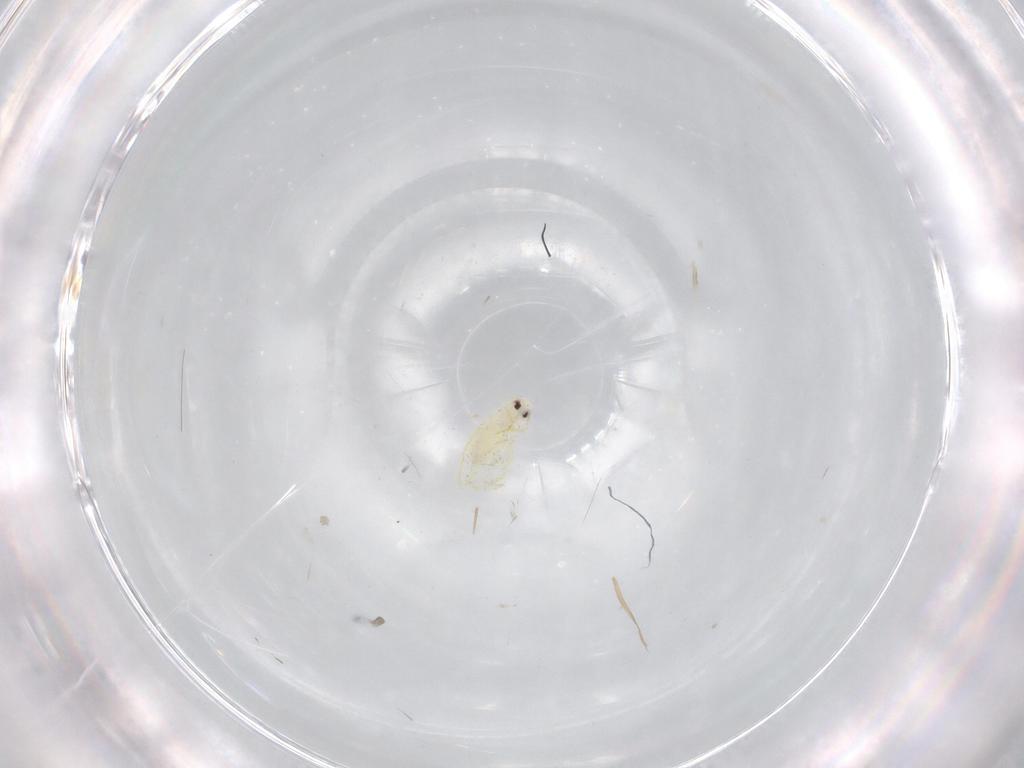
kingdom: Animalia
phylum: Arthropoda
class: Insecta
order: Hemiptera
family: Aleyrodidae
